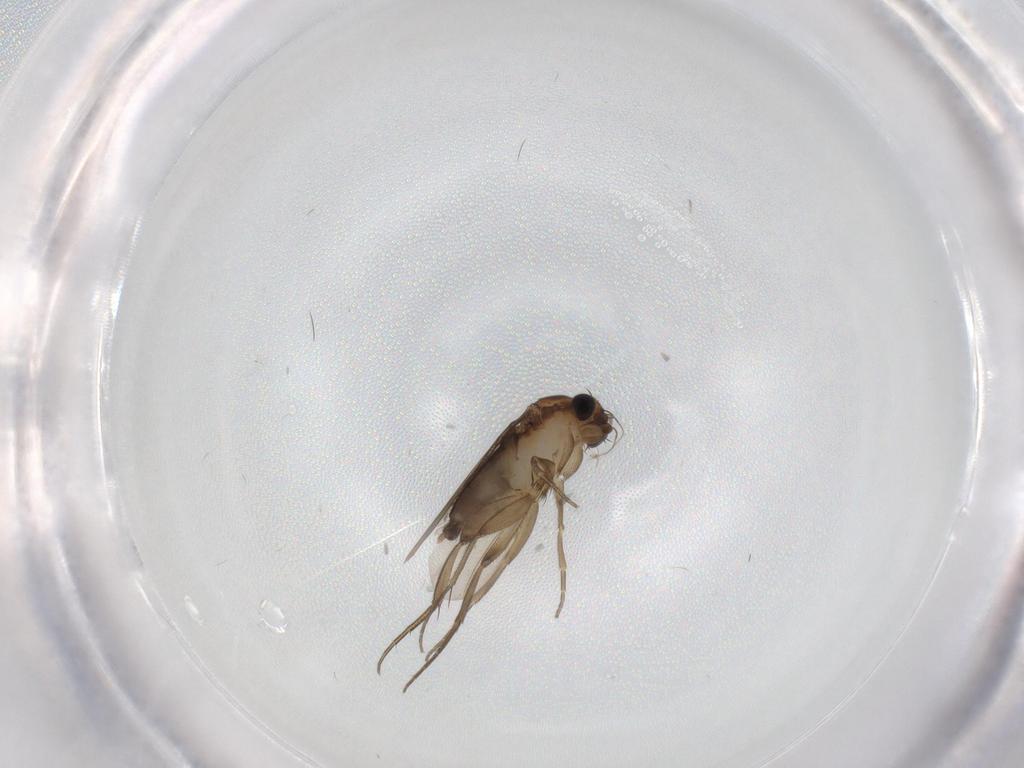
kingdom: Animalia
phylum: Arthropoda
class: Insecta
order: Diptera
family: Phoridae
